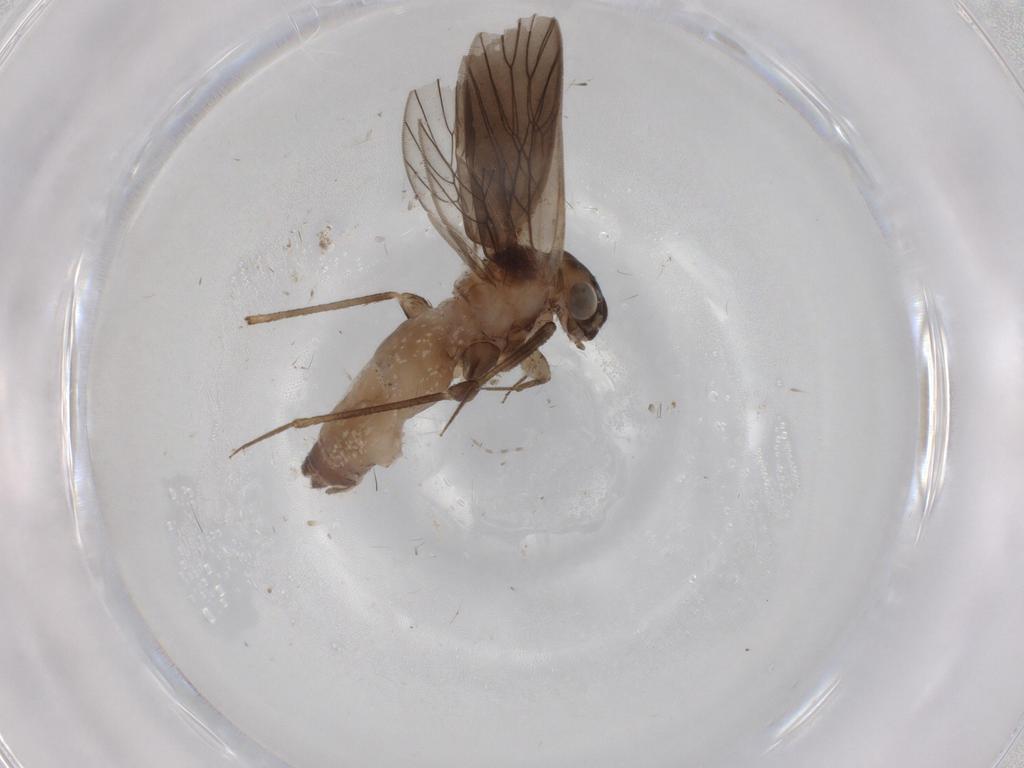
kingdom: Animalia
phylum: Arthropoda
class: Insecta
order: Psocodea
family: Lepidopsocidae
